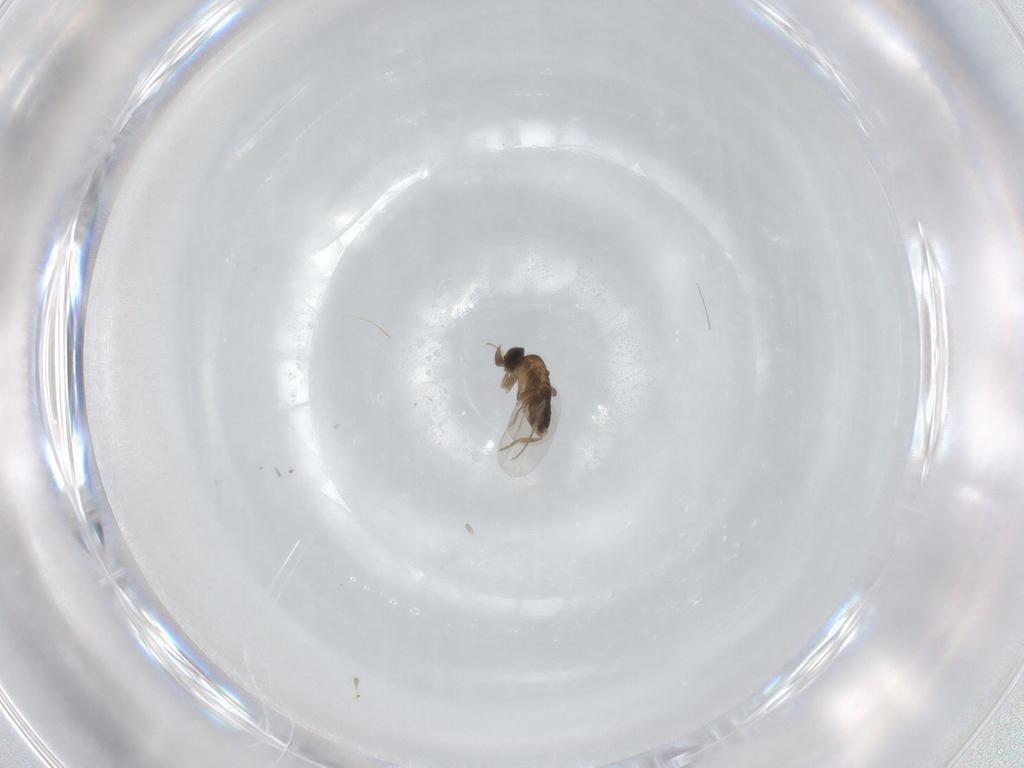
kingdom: Animalia
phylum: Arthropoda
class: Insecta
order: Diptera
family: Phoridae
